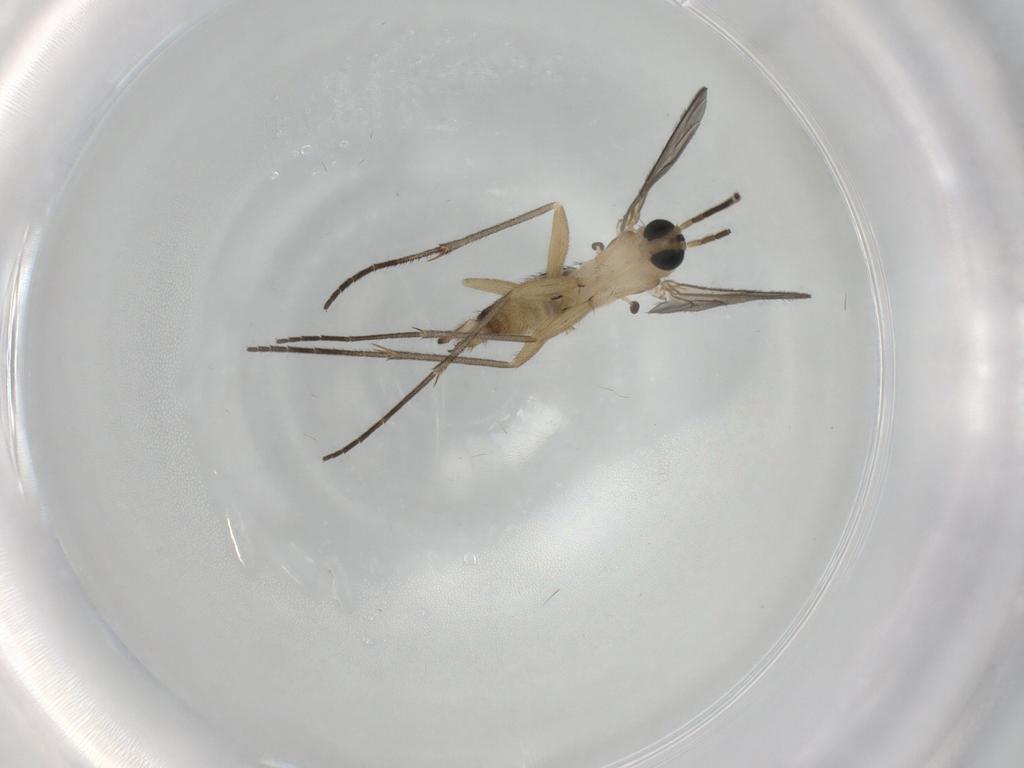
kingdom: Animalia
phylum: Arthropoda
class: Insecta
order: Diptera
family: Sciaridae
